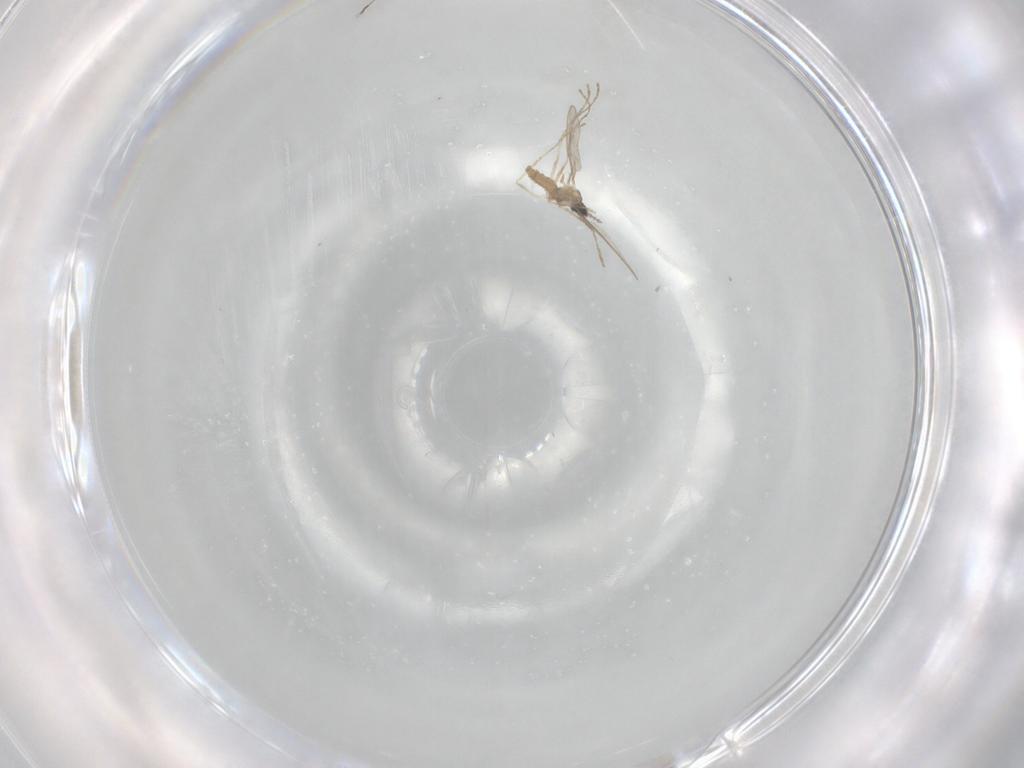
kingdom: Animalia
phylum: Arthropoda
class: Insecta
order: Diptera
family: Cecidomyiidae
